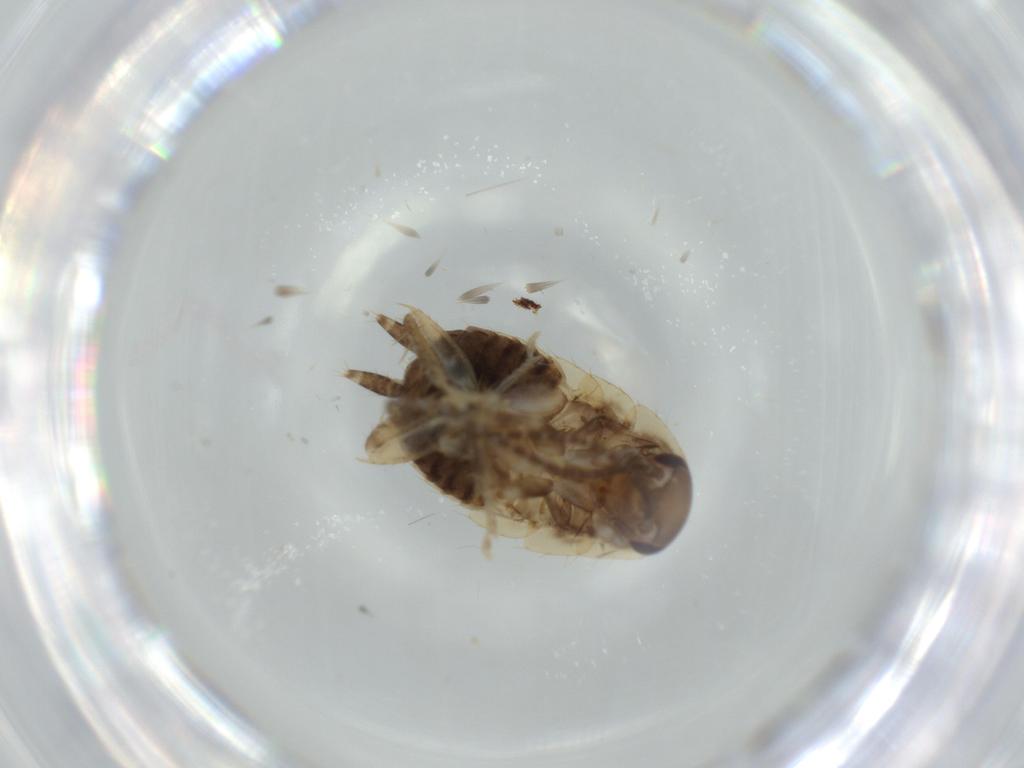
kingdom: Animalia
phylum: Arthropoda
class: Insecta
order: Blattodea
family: Ectobiidae
